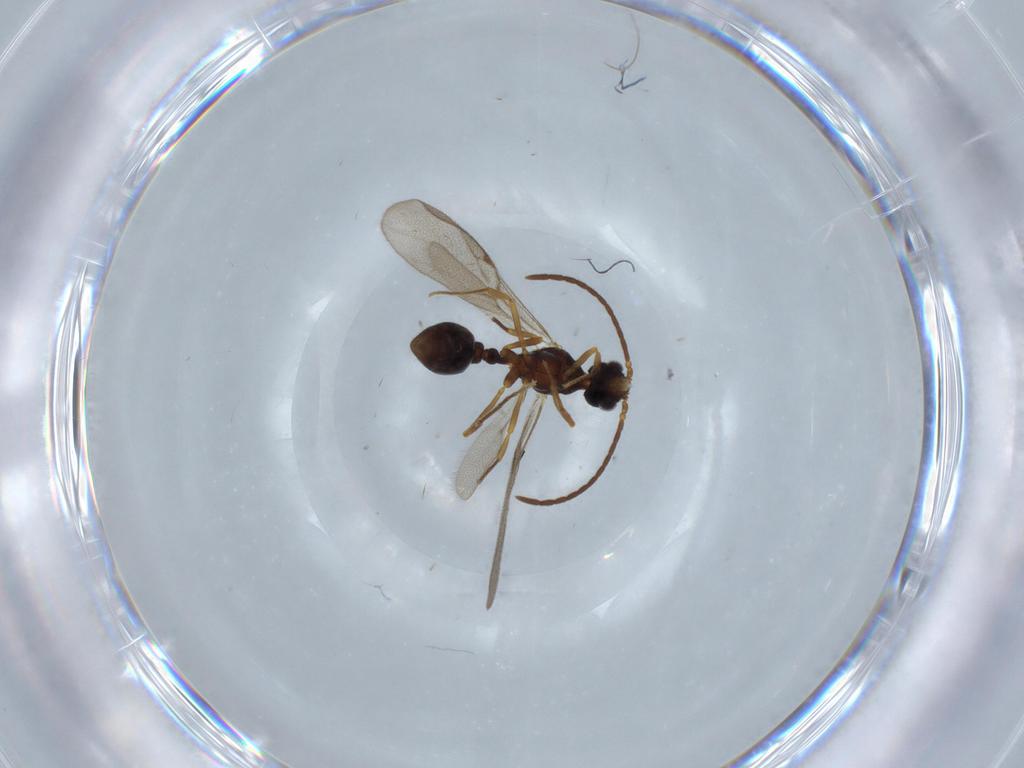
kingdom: Animalia
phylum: Arthropoda
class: Insecta
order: Hymenoptera
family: Formicidae
